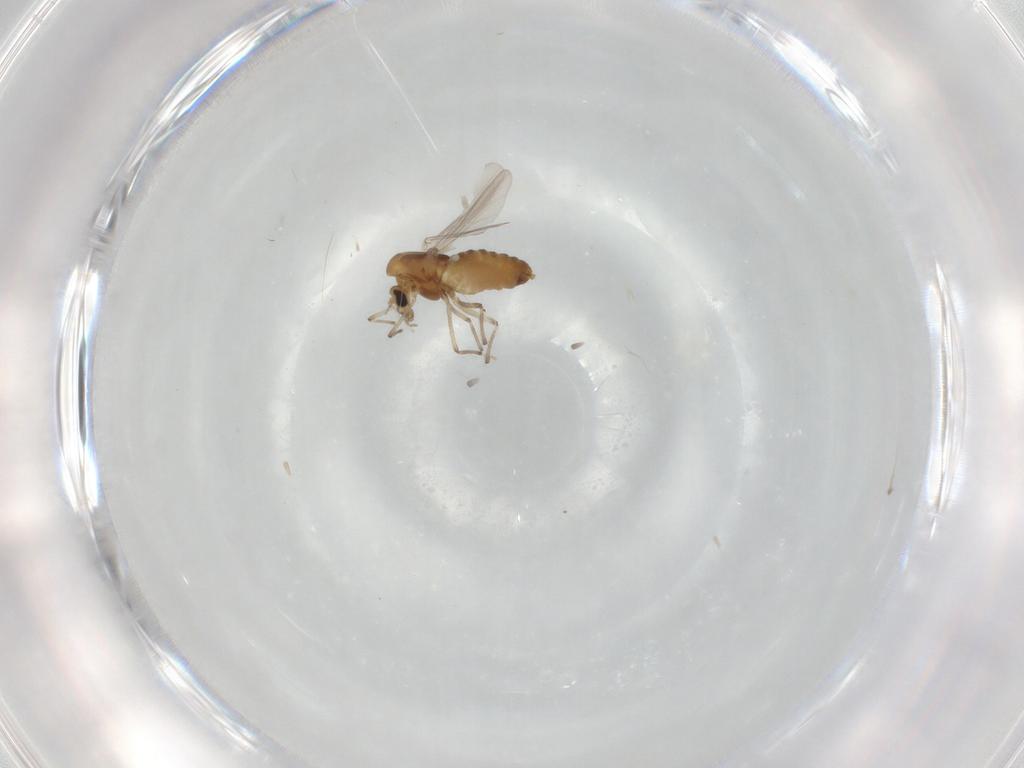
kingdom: Animalia
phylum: Arthropoda
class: Insecta
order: Diptera
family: Chironomidae
